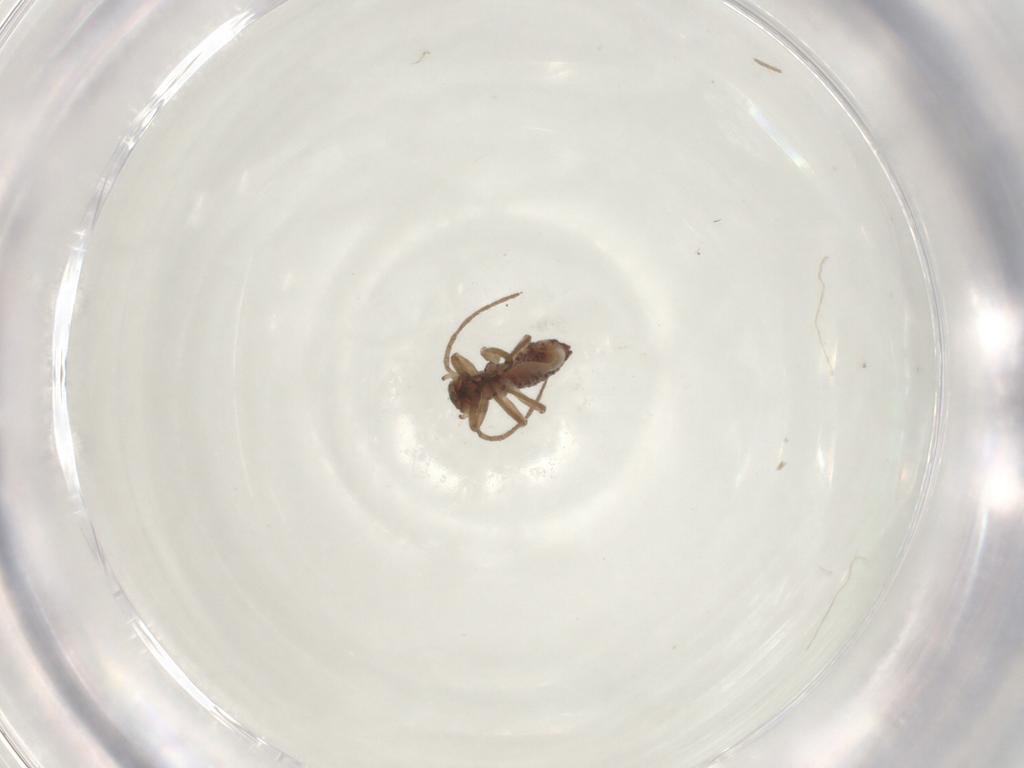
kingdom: Animalia
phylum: Arthropoda
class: Insecta
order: Psocodea
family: Psocidae
